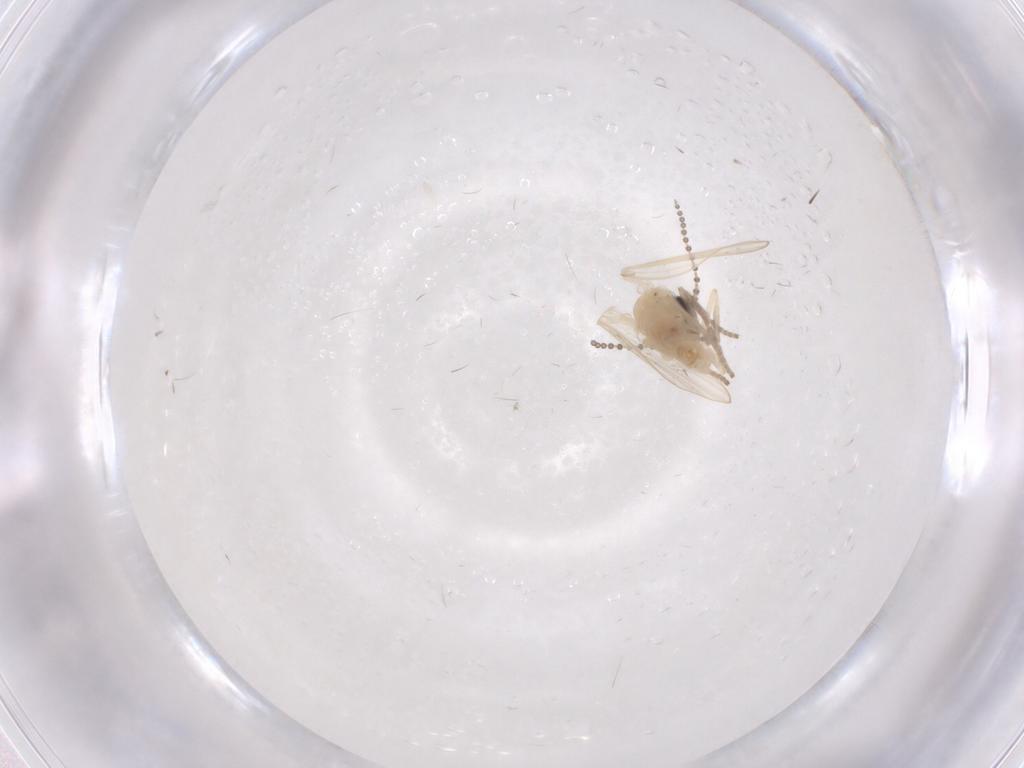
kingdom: Animalia
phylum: Arthropoda
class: Insecta
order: Diptera
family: Psychodidae
